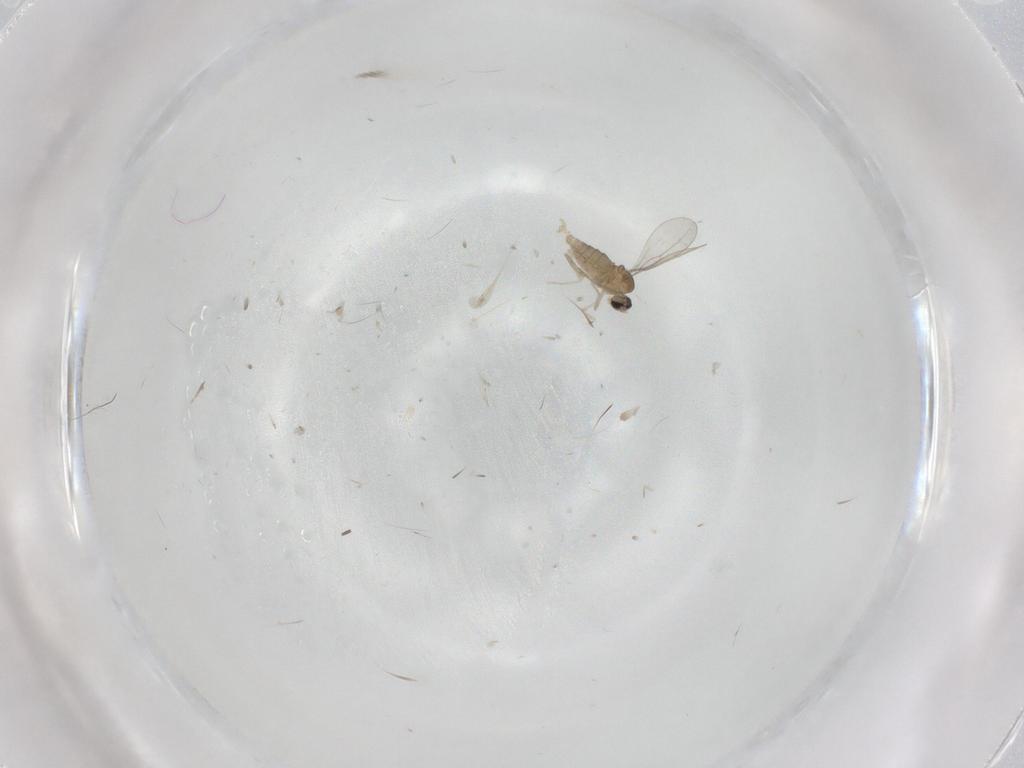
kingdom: Animalia
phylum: Arthropoda
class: Insecta
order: Diptera
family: Cecidomyiidae
